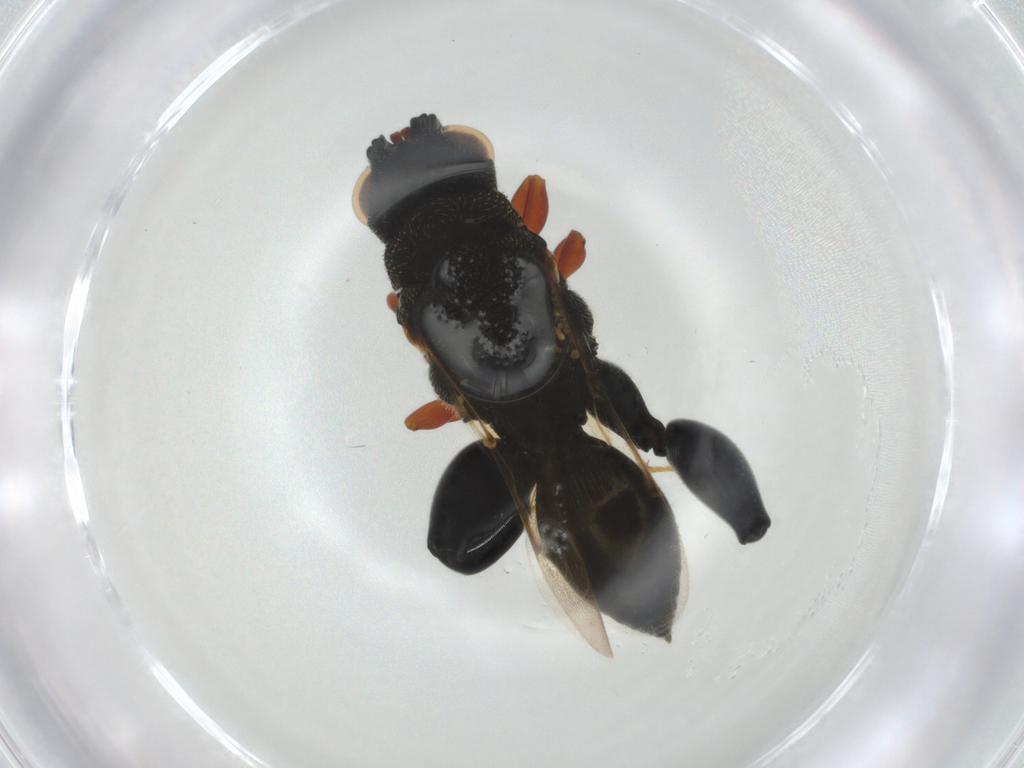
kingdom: Animalia
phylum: Arthropoda
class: Insecta
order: Hymenoptera
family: Chalcididae
